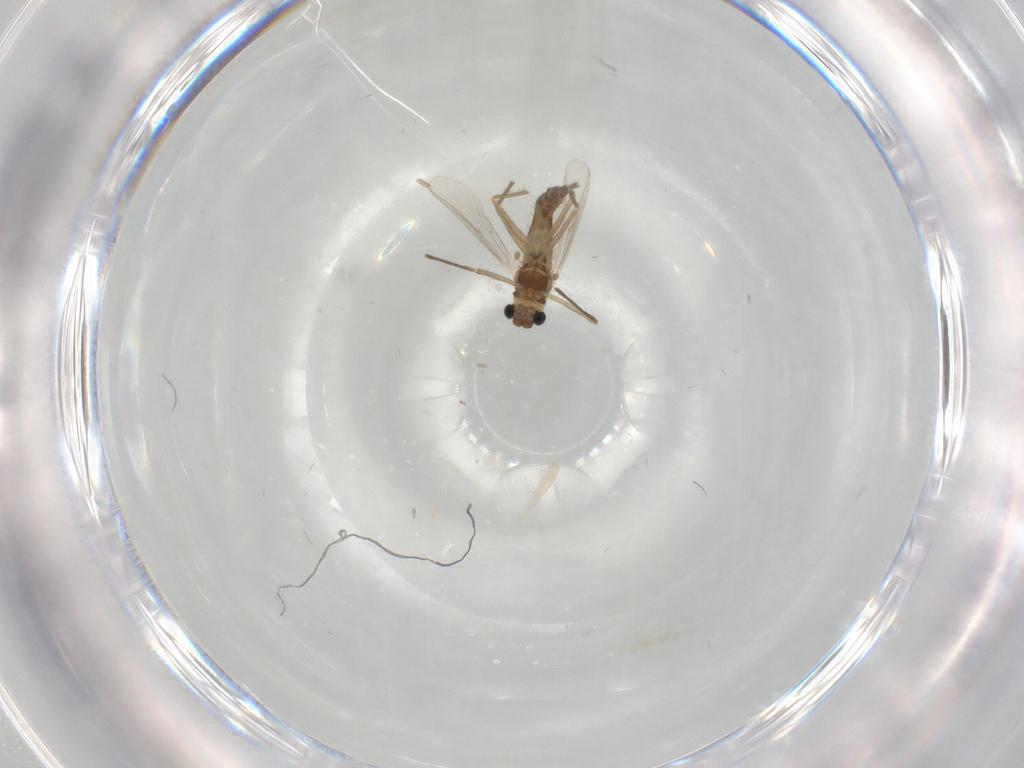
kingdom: Animalia
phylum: Arthropoda
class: Insecta
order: Diptera
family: Chironomidae
